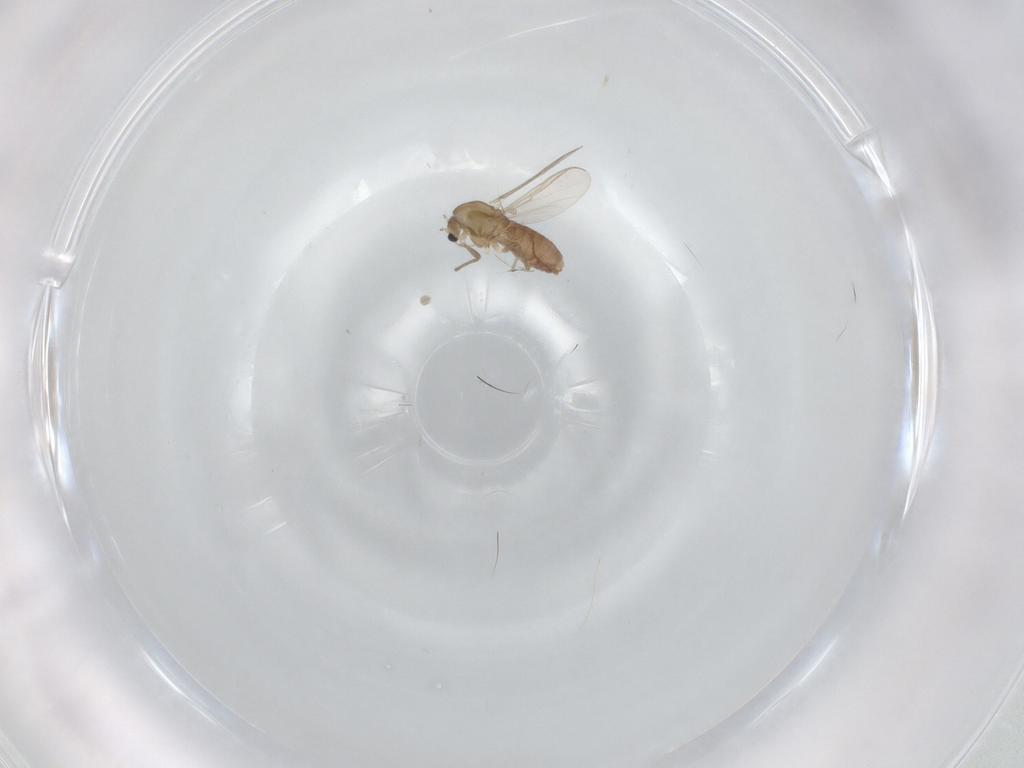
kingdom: Animalia
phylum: Arthropoda
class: Insecta
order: Diptera
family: Chironomidae
